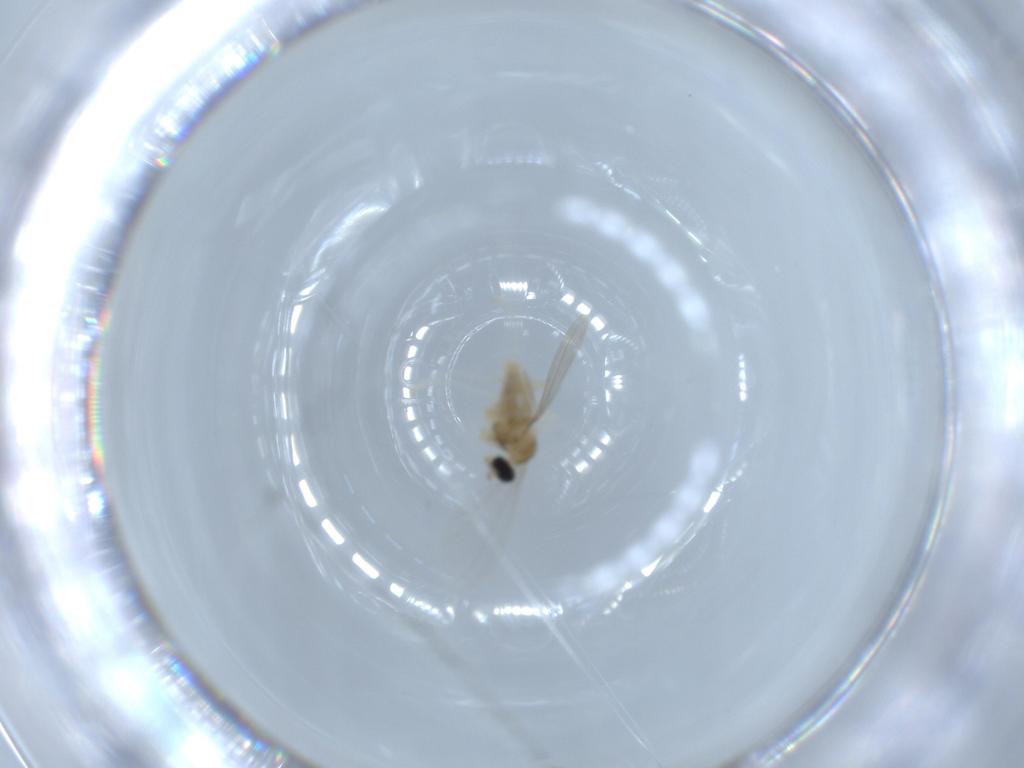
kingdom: Animalia
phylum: Arthropoda
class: Insecta
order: Diptera
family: Cecidomyiidae
